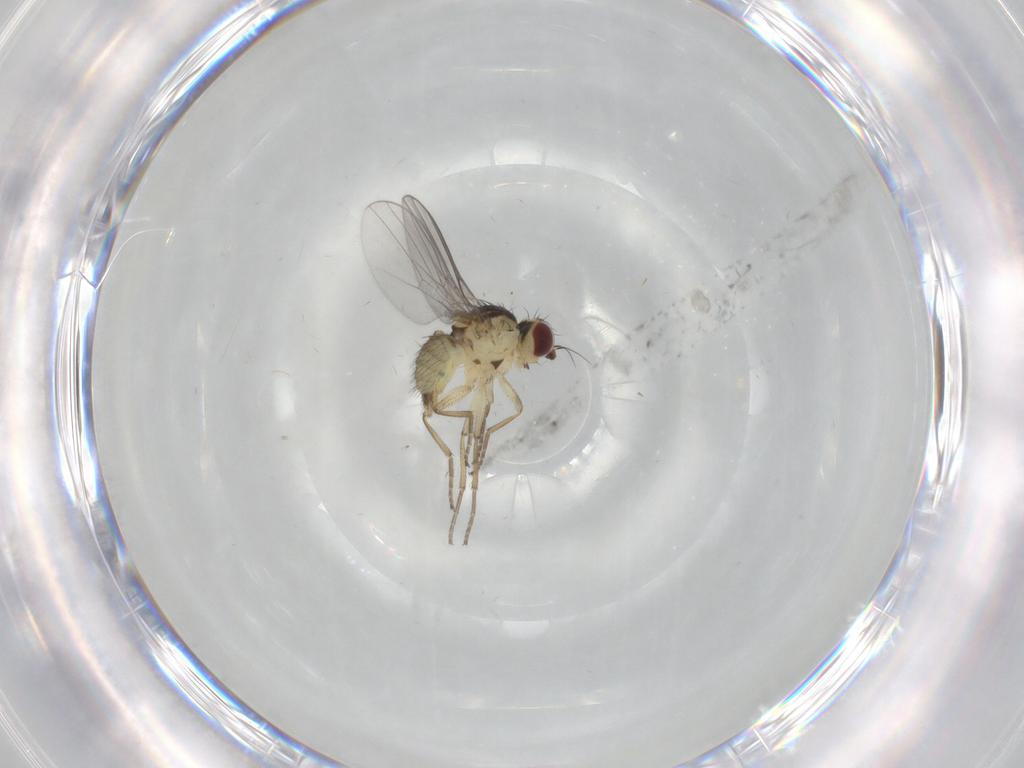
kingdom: Animalia
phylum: Arthropoda
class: Insecta
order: Diptera
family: Agromyzidae
